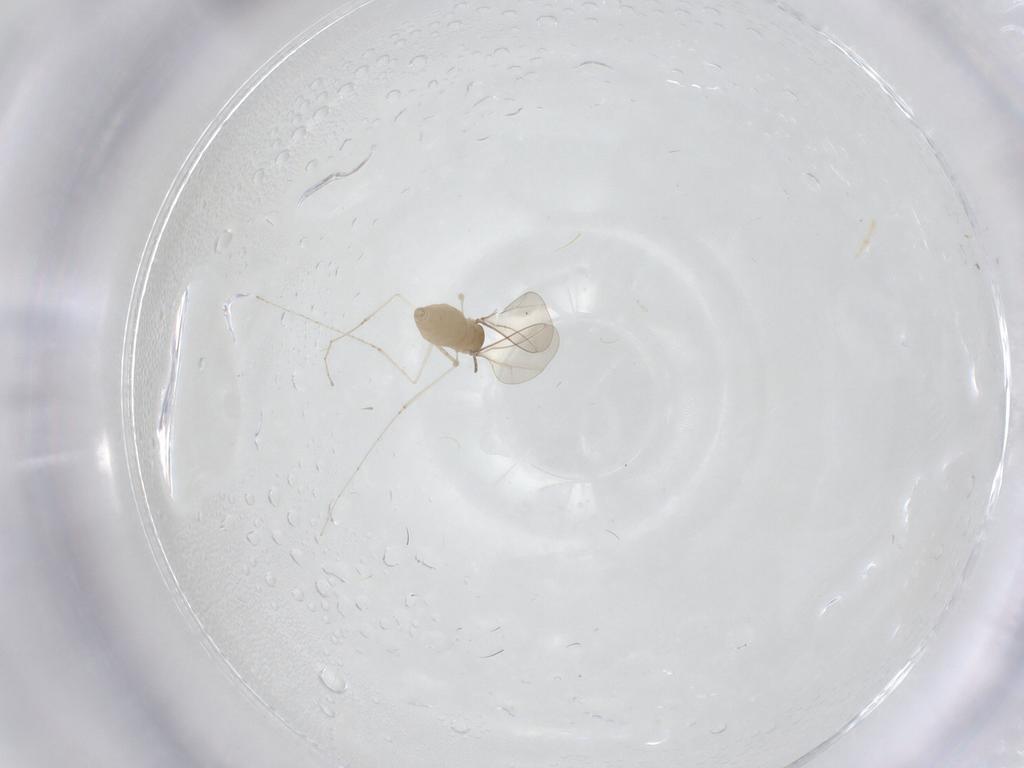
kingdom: Animalia
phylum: Arthropoda
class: Insecta
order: Diptera
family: Cecidomyiidae
